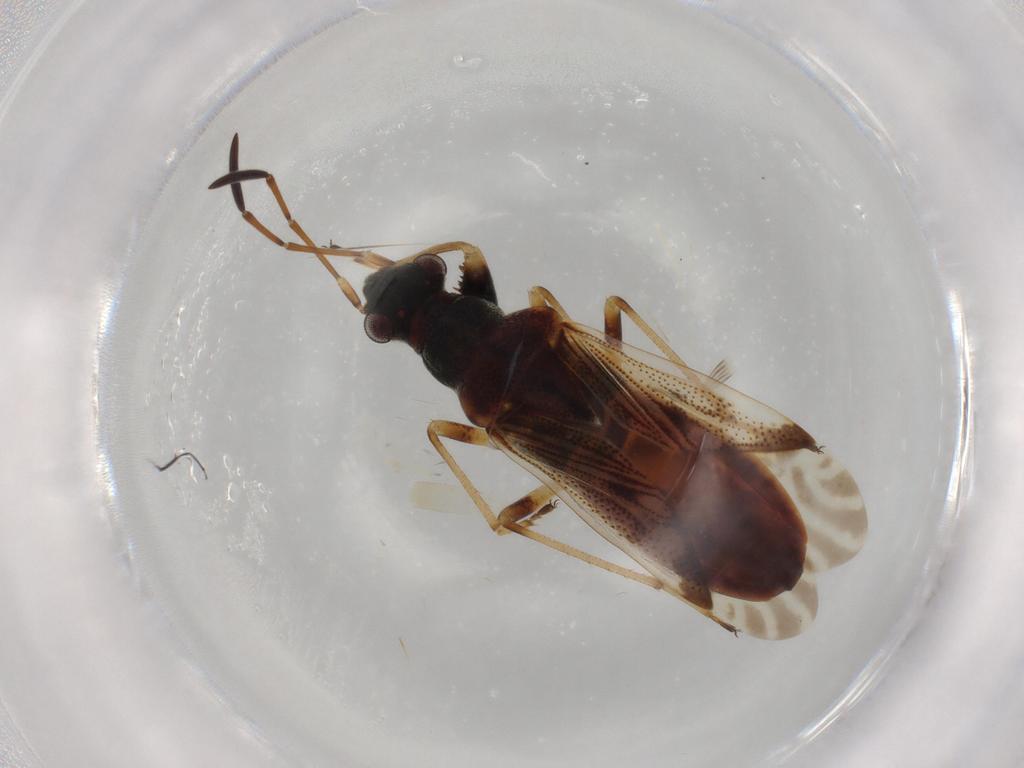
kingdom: Animalia
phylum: Arthropoda
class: Insecta
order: Hemiptera
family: Rhyparochromidae
